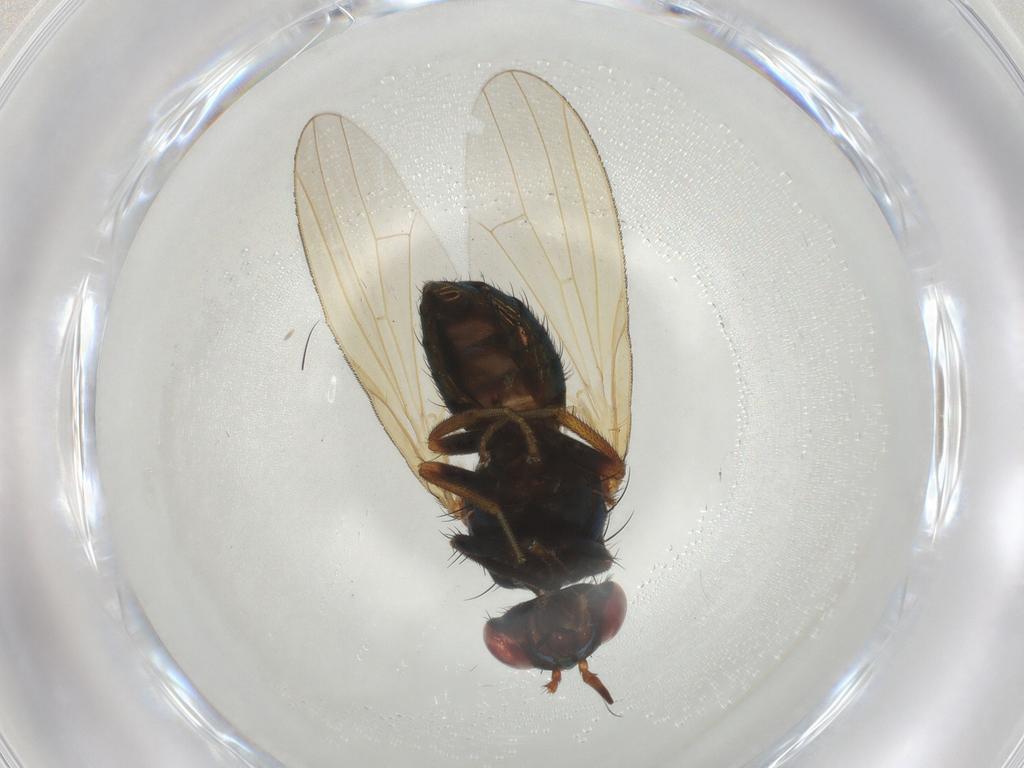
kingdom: Animalia
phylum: Arthropoda
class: Insecta
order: Diptera
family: Lauxaniidae
